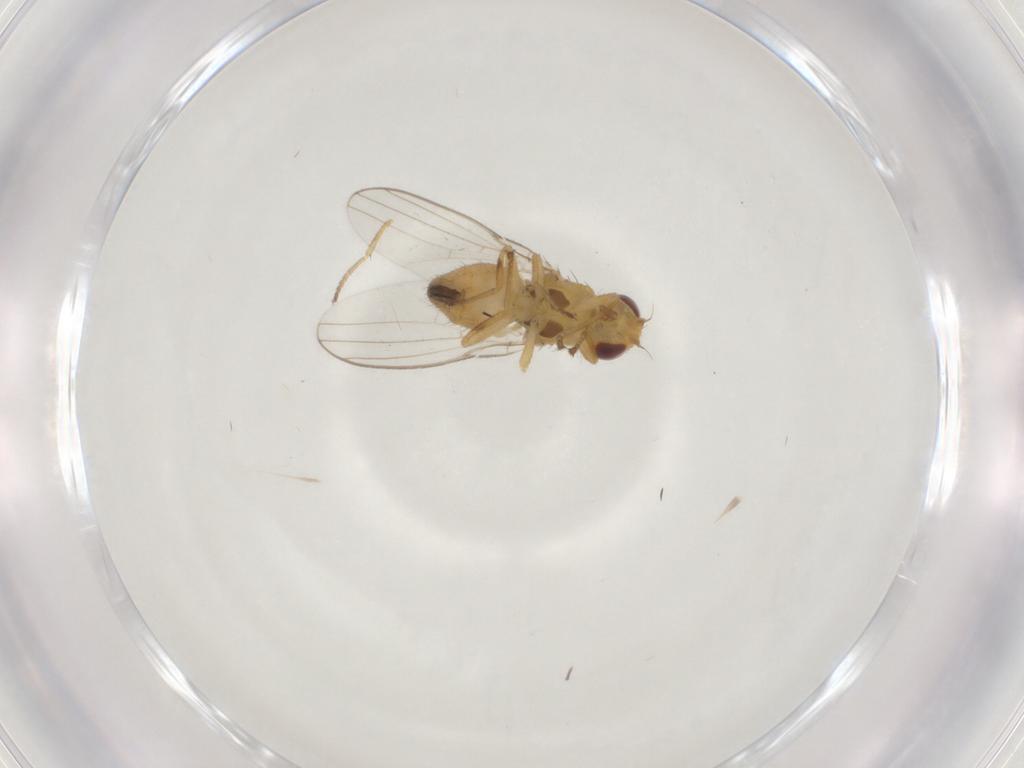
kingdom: Animalia
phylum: Arthropoda
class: Insecta
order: Diptera
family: Chloropidae
